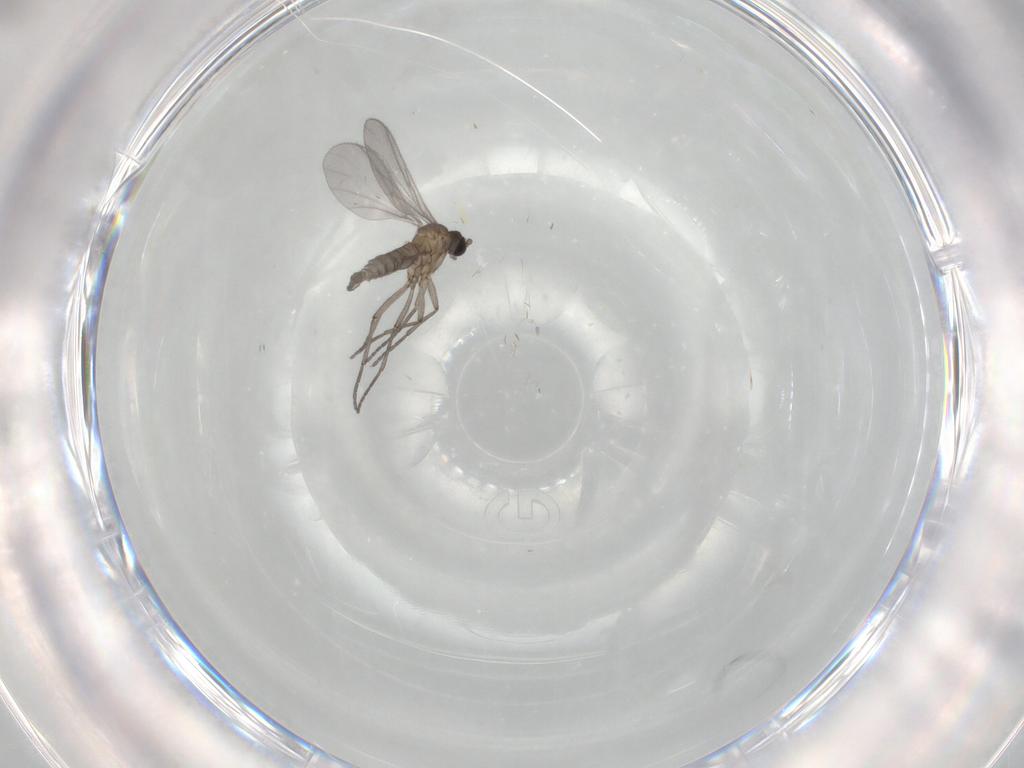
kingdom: Animalia
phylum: Arthropoda
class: Insecta
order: Diptera
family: Sciaridae
